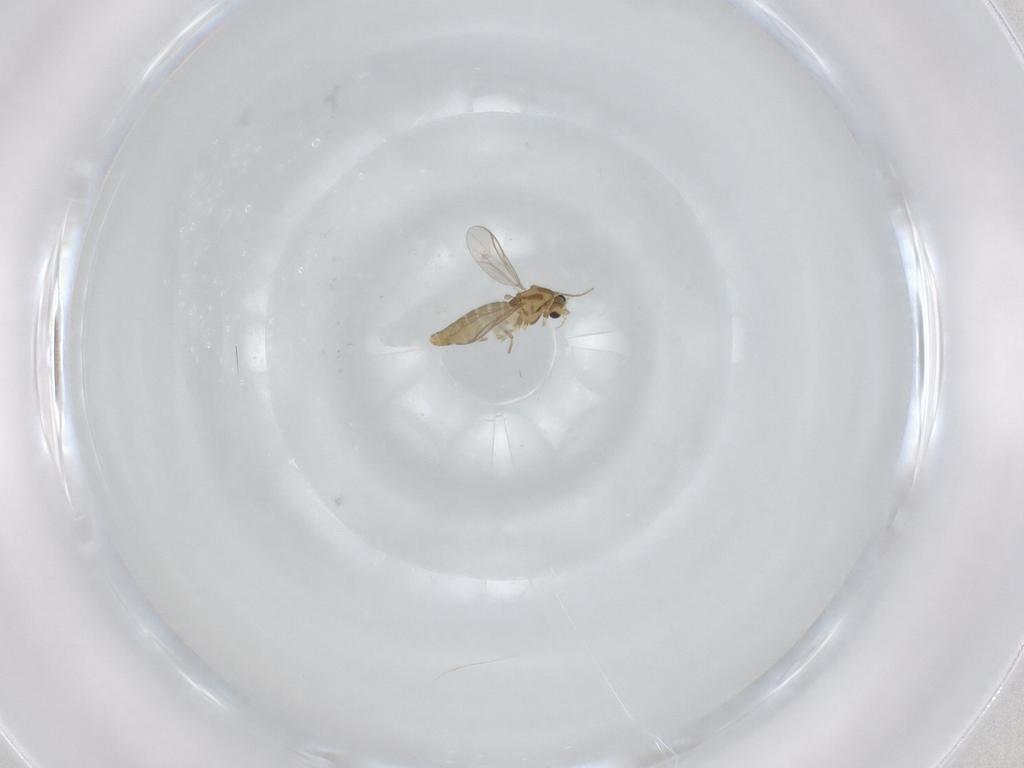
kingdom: Animalia
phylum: Arthropoda
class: Insecta
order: Diptera
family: Chironomidae
